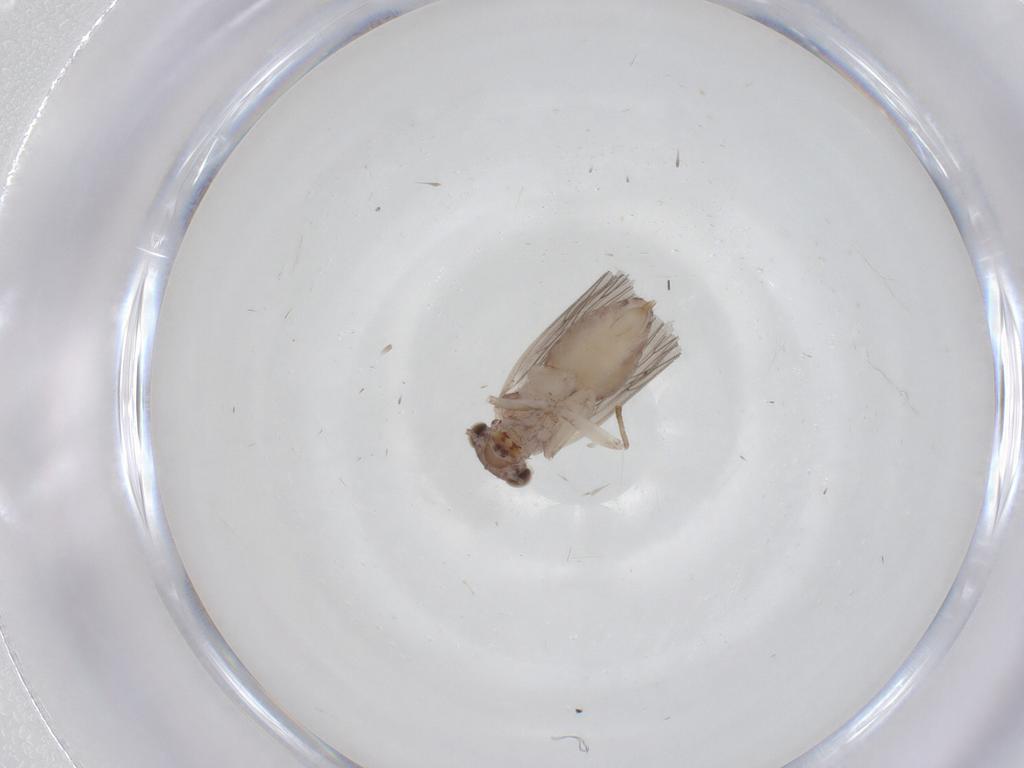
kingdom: Animalia
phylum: Arthropoda
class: Insecta
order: Psocodea
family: Lepidopsocidae
